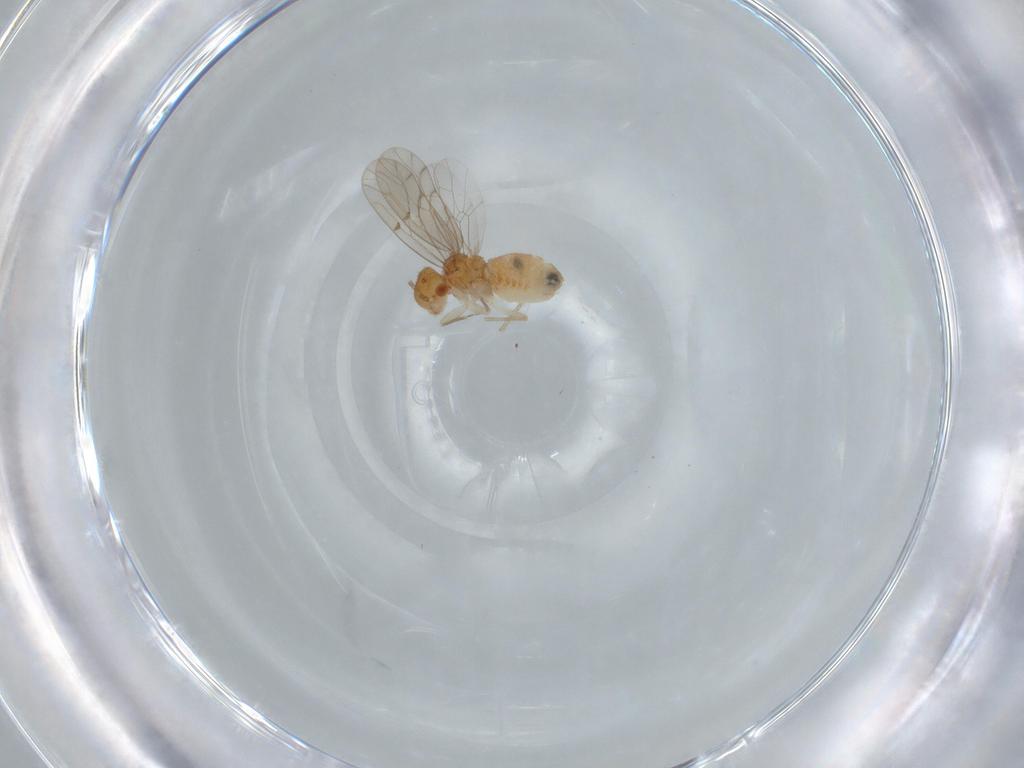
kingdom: Animalia
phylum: Arthropoda
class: Insecta
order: Psocodea
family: Ectopsocidae
